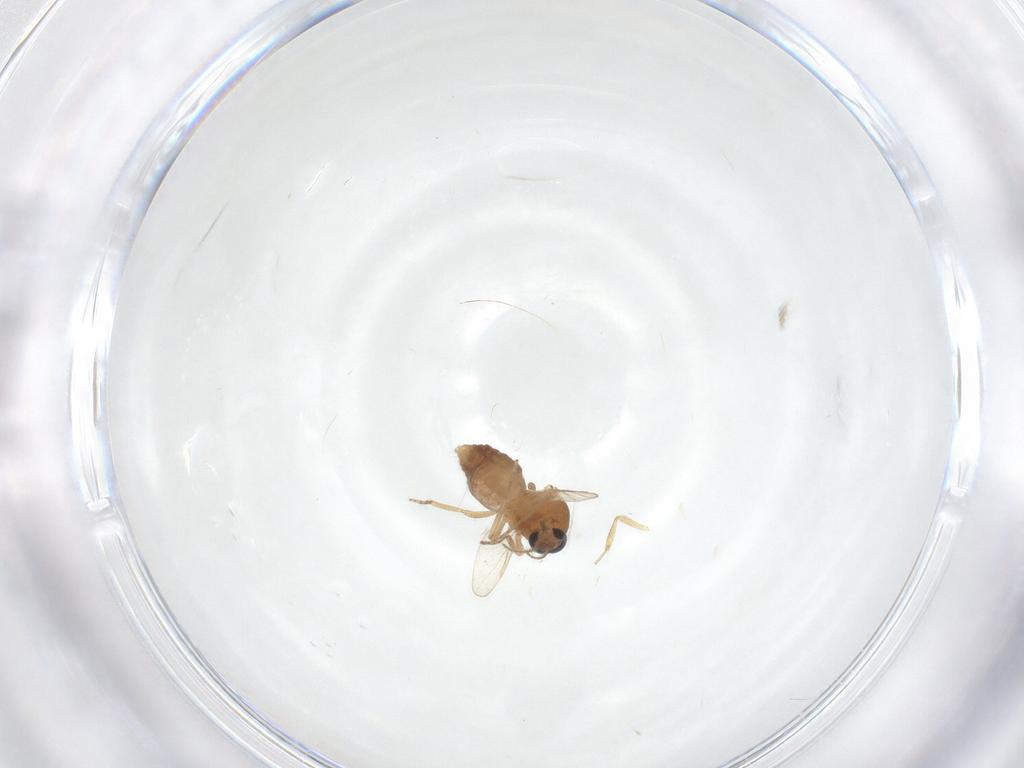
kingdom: Animalia
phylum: Arthropoda
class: Insecta
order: Diptera
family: Ceratopogonidae
